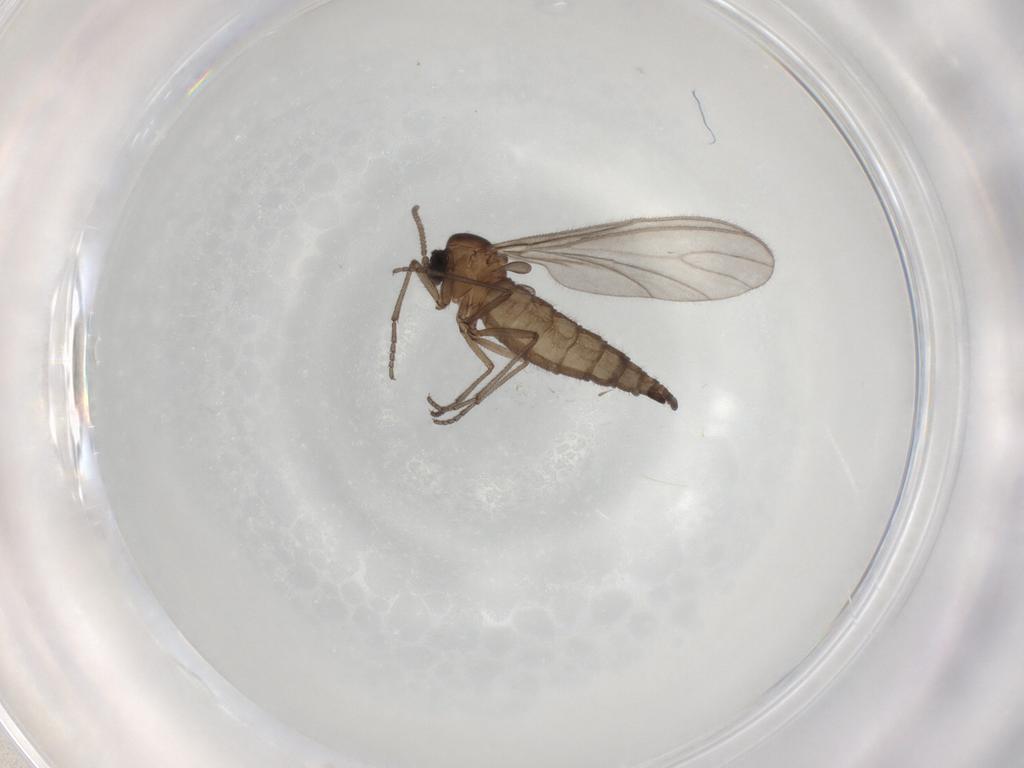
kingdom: Animalia
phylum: Arthropoda
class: Insecta
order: Diptera
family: Sciaridae
